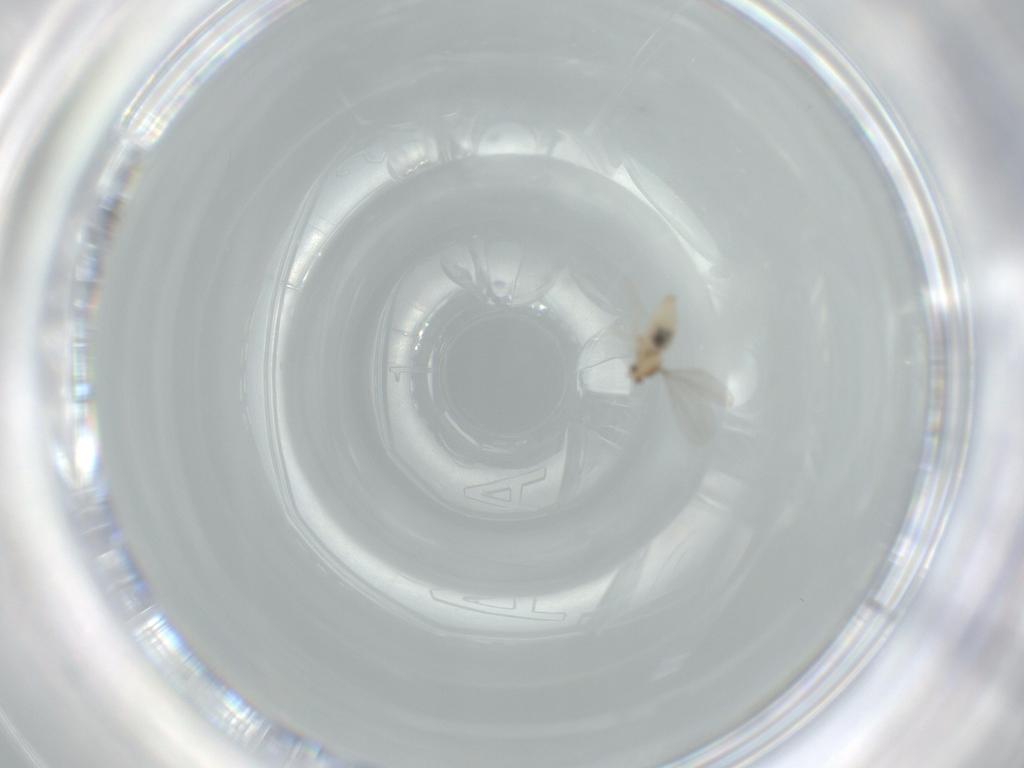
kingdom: Animalia
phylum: Arthropoda
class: Insecta
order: Diptera
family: Cecidomyiidae
